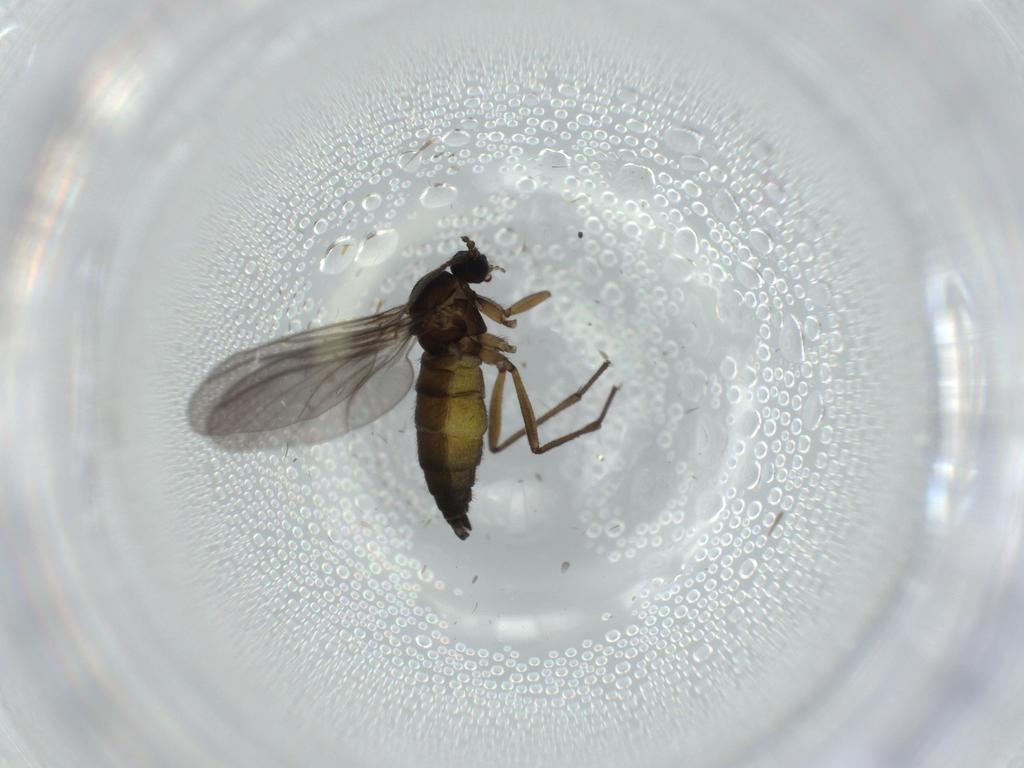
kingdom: Animalia
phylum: Arthropoda
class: Insecta
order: Diptera
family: Sciaridae
